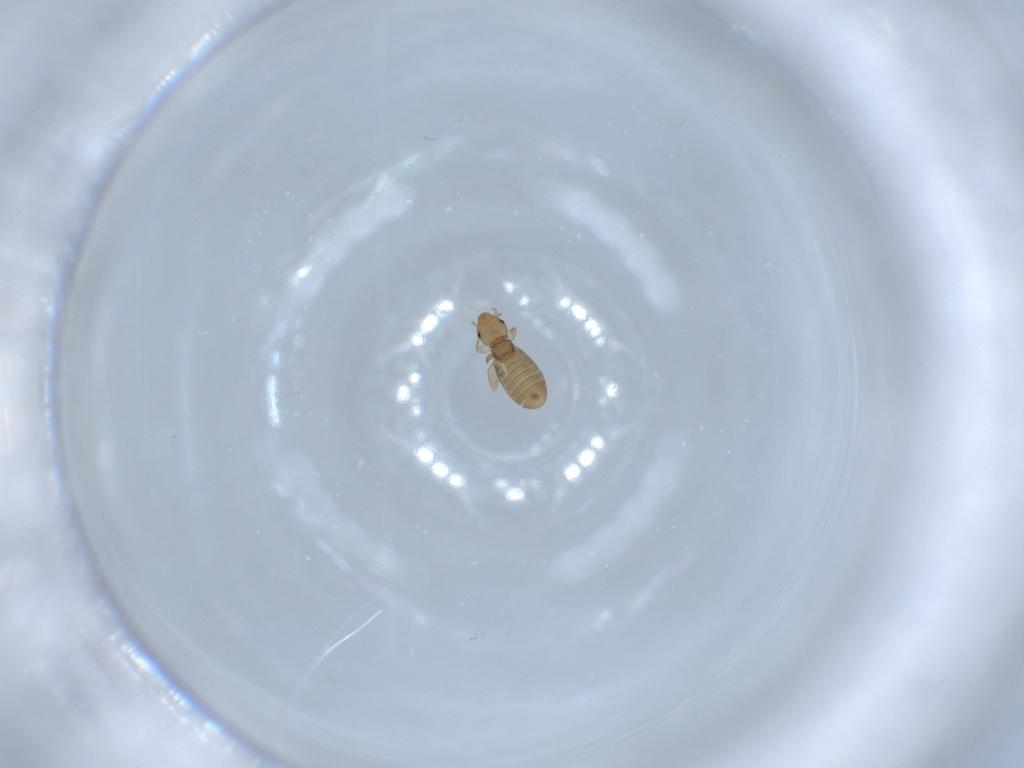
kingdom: Animalia
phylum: Arthropoda
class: Insecta
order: Psocodea
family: Liposcelididae
